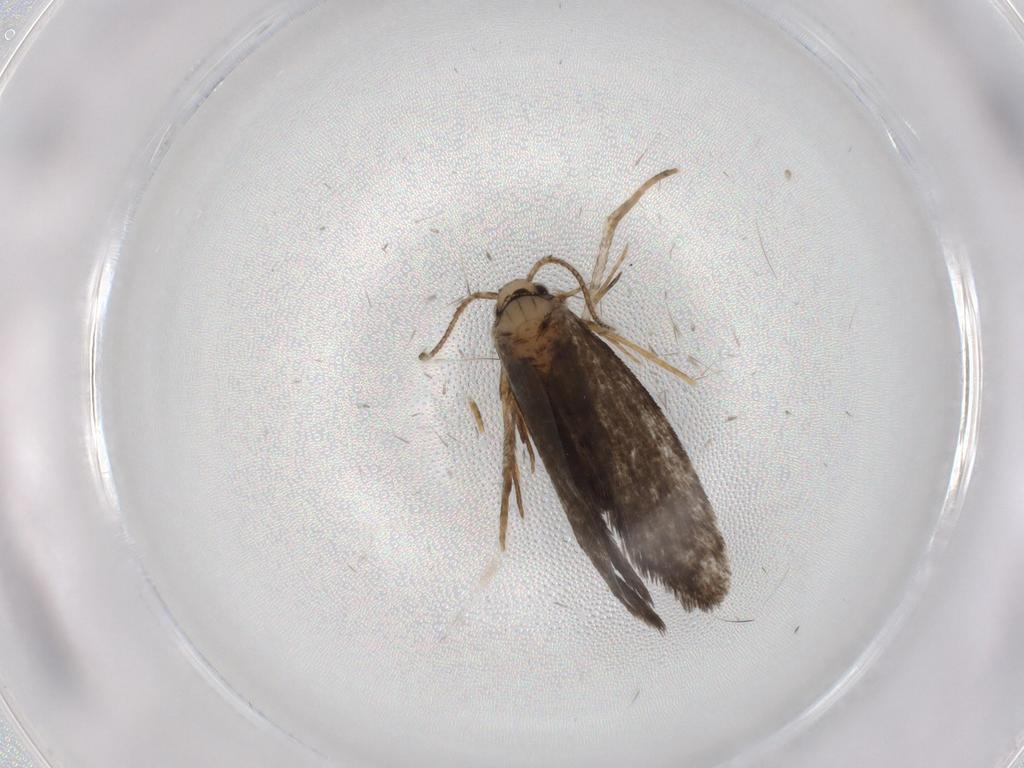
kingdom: Animalia
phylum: Arthropoda
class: Insecta
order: Lepidoptera
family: Psychidae
